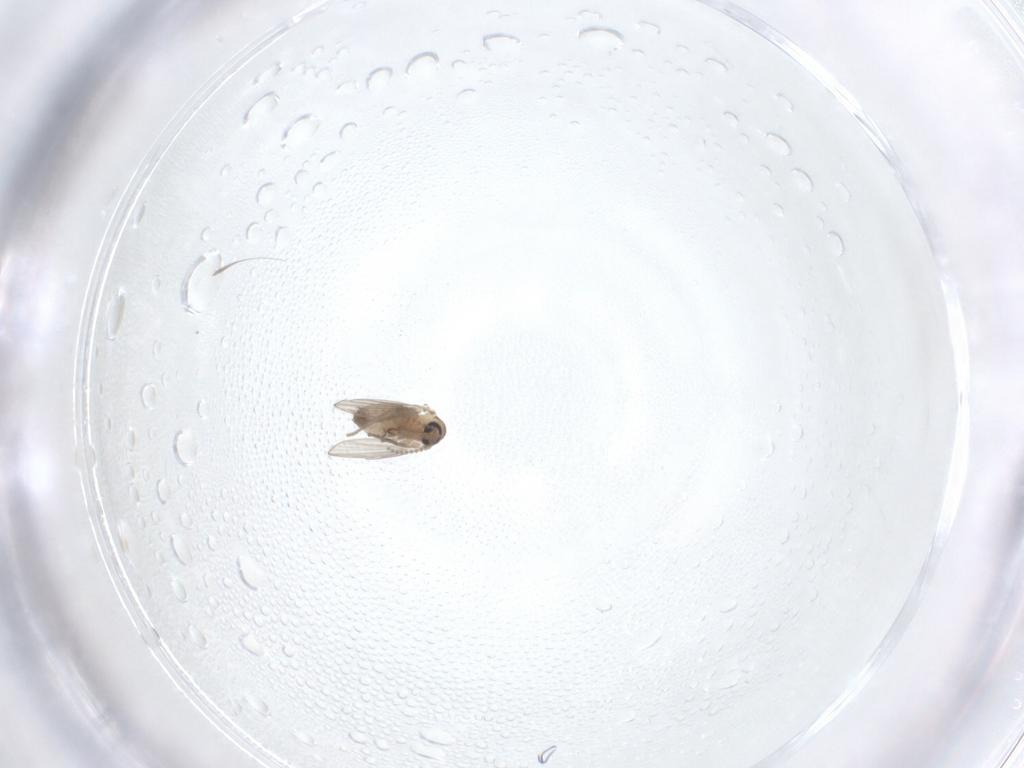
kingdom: Animalia
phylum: Arthropoda
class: Insecta
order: Diptera
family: Psychodidae
